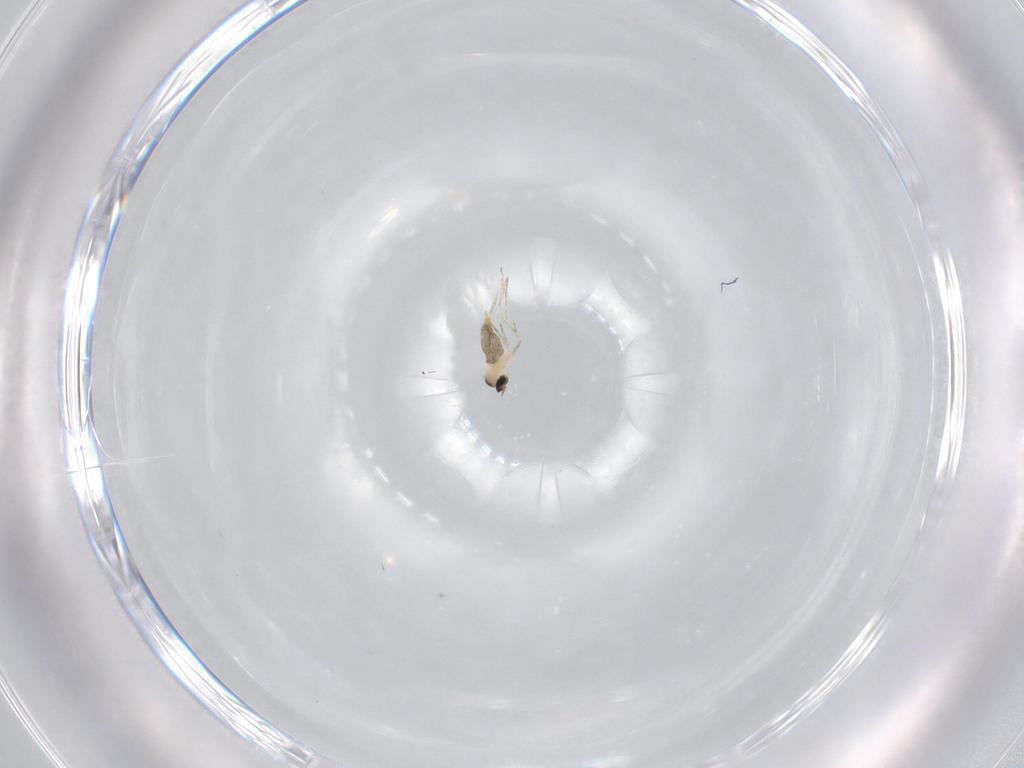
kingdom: Animalia
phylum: Arthropoda
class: Insecta
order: Diptera
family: Cecidomyiidae
